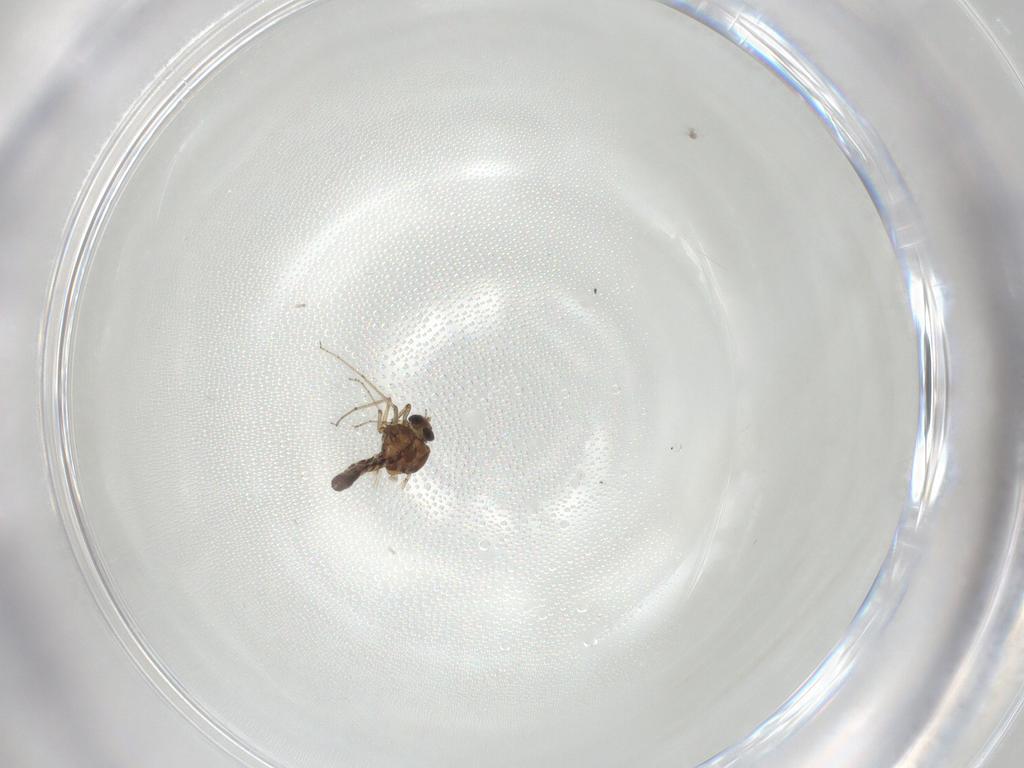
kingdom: Animalia
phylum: Arthropoda
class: Insecta
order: Diptera
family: Ceratopogonidae
